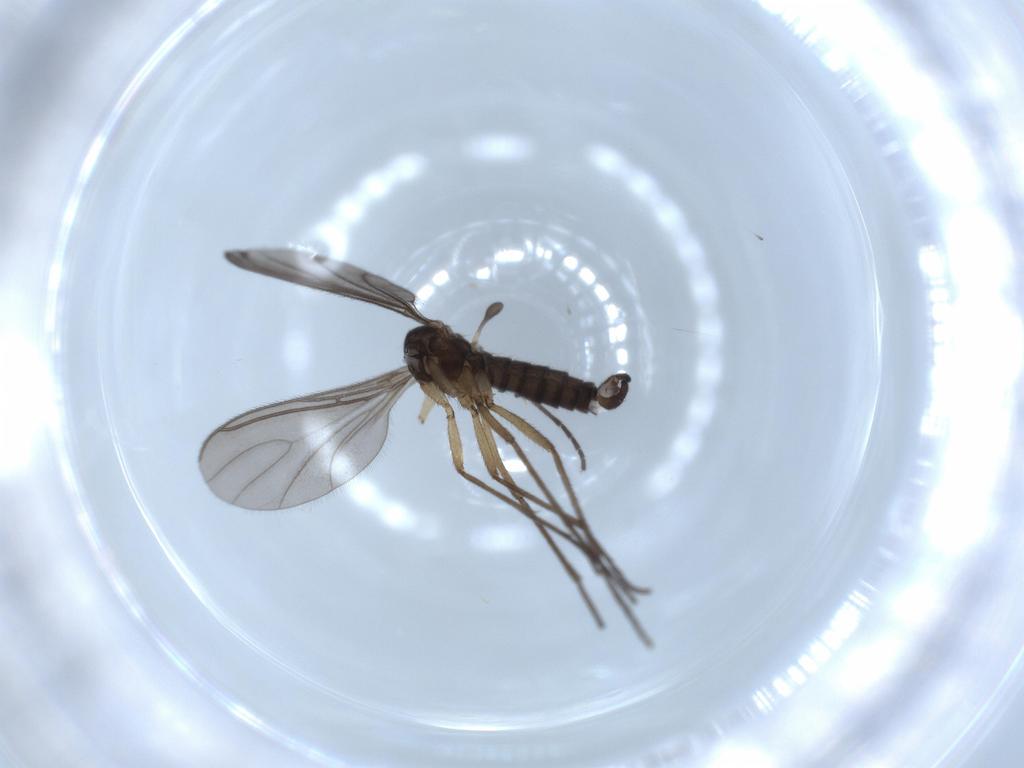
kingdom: Animalia
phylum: Arthropoda
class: Insecta
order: Diptera
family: Sciaridae
